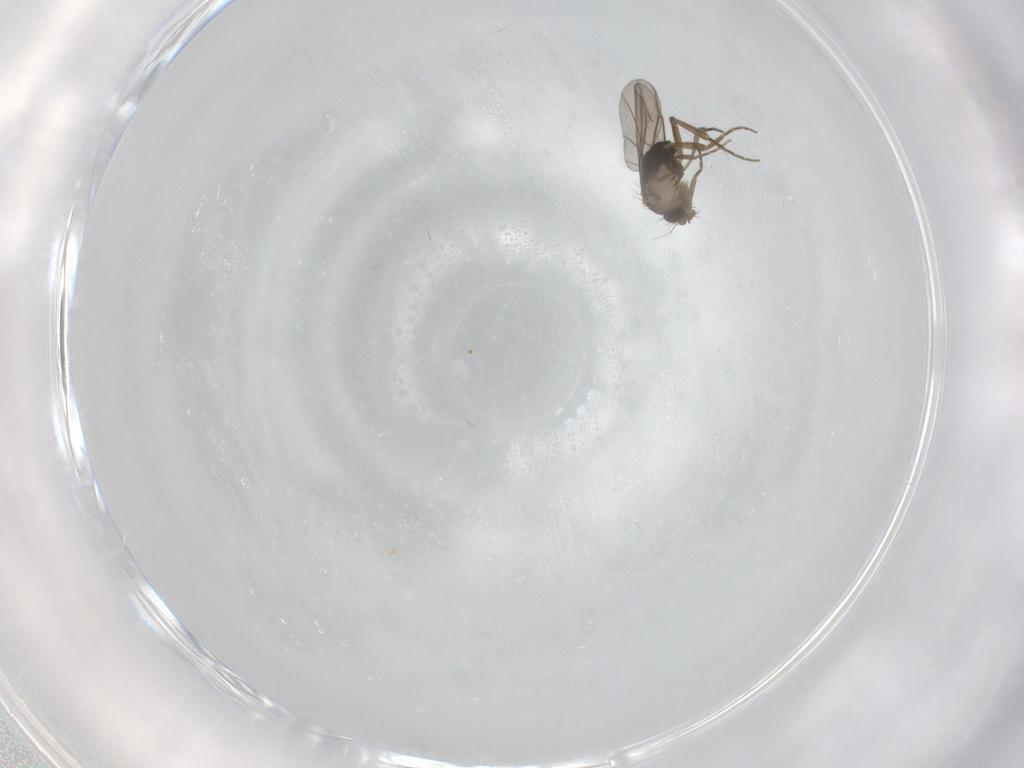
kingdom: Animalia
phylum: Arthropoda
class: Insecta
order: Diptera
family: Phoridae
